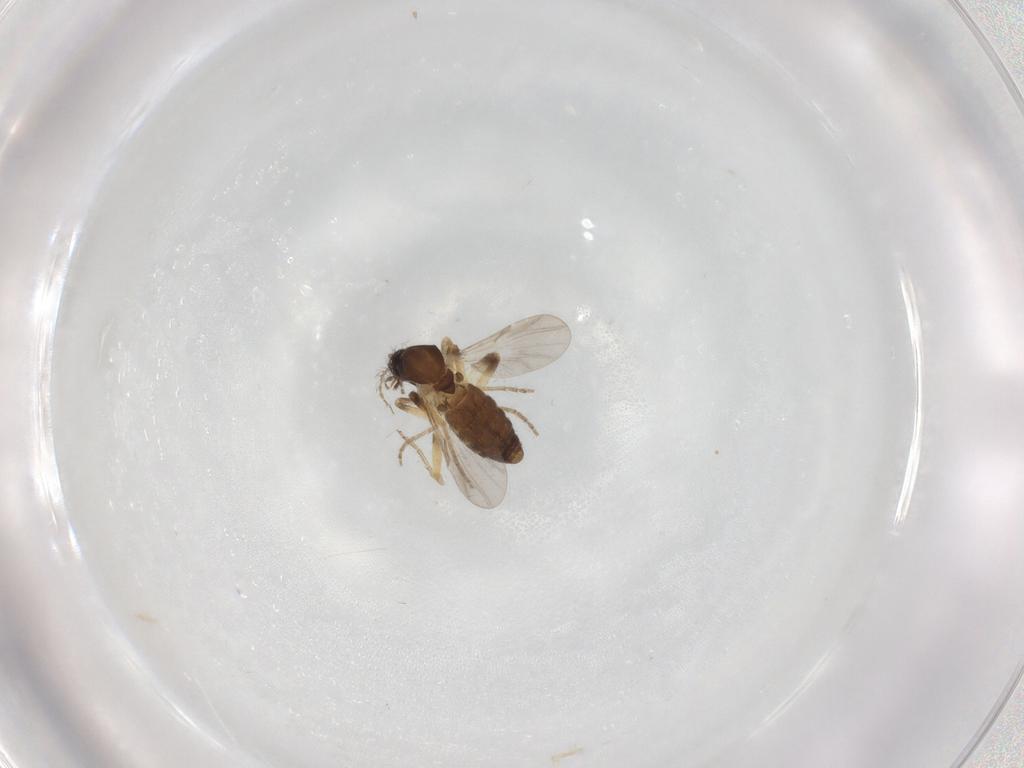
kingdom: Animalia
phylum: Arthropoda
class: Insecta
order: Diptera
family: Ceratopogonidae
